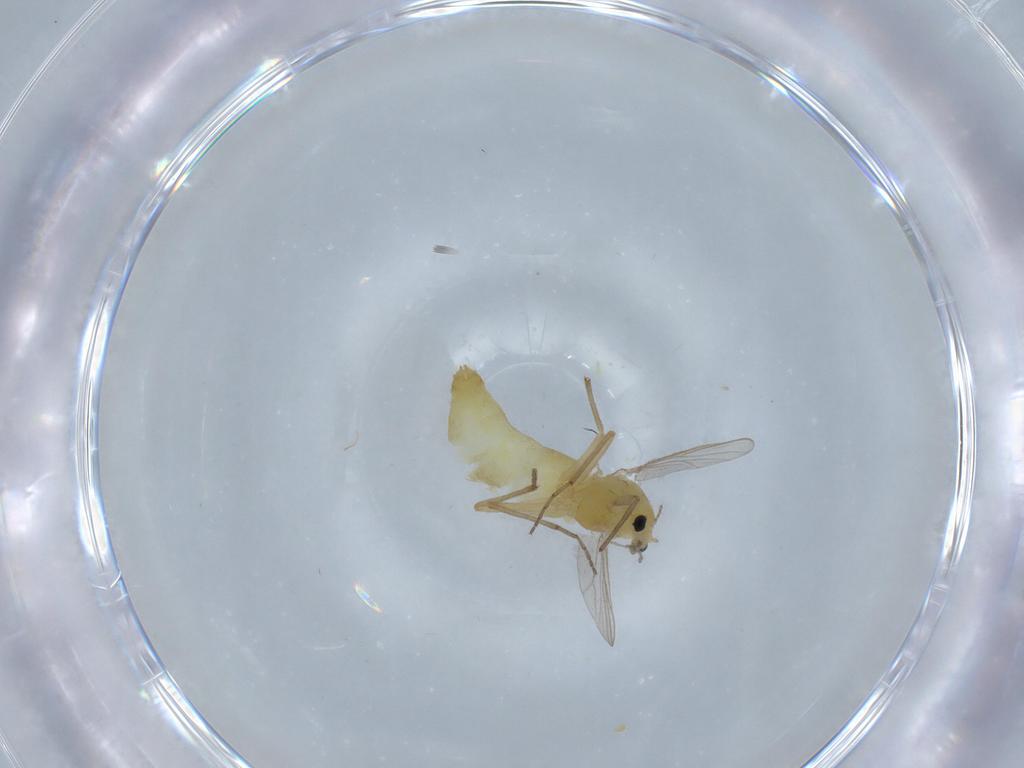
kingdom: Animalia
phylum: Arthropoda
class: Insecta
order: Diptera
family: Chironomidae
